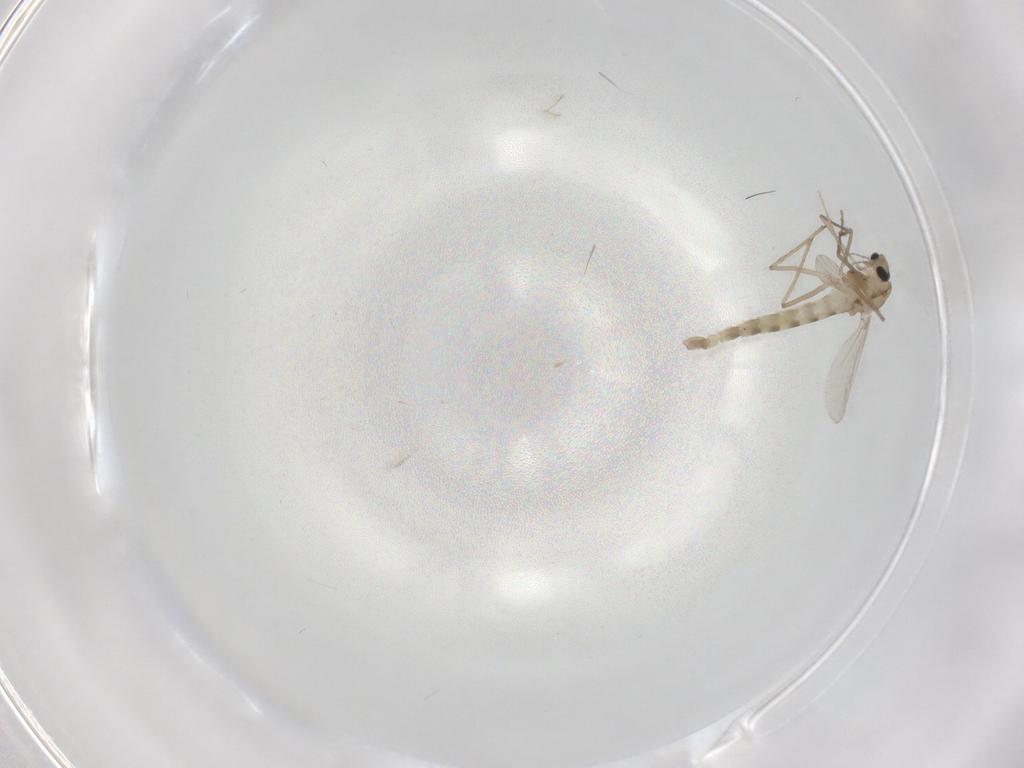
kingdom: Animalia
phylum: Arthropoda
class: Insecta
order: Diptera
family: Chironomidae
